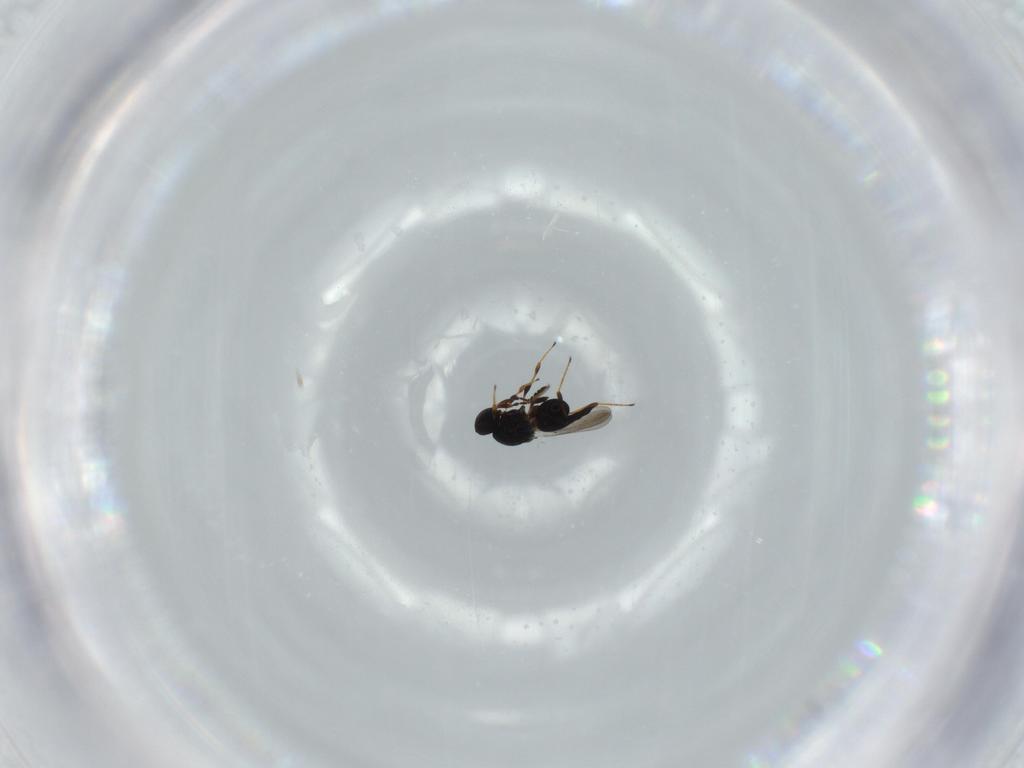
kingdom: Animalia
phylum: Arthropoda
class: Insecta
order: Hymenoptera
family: Platygastridae
